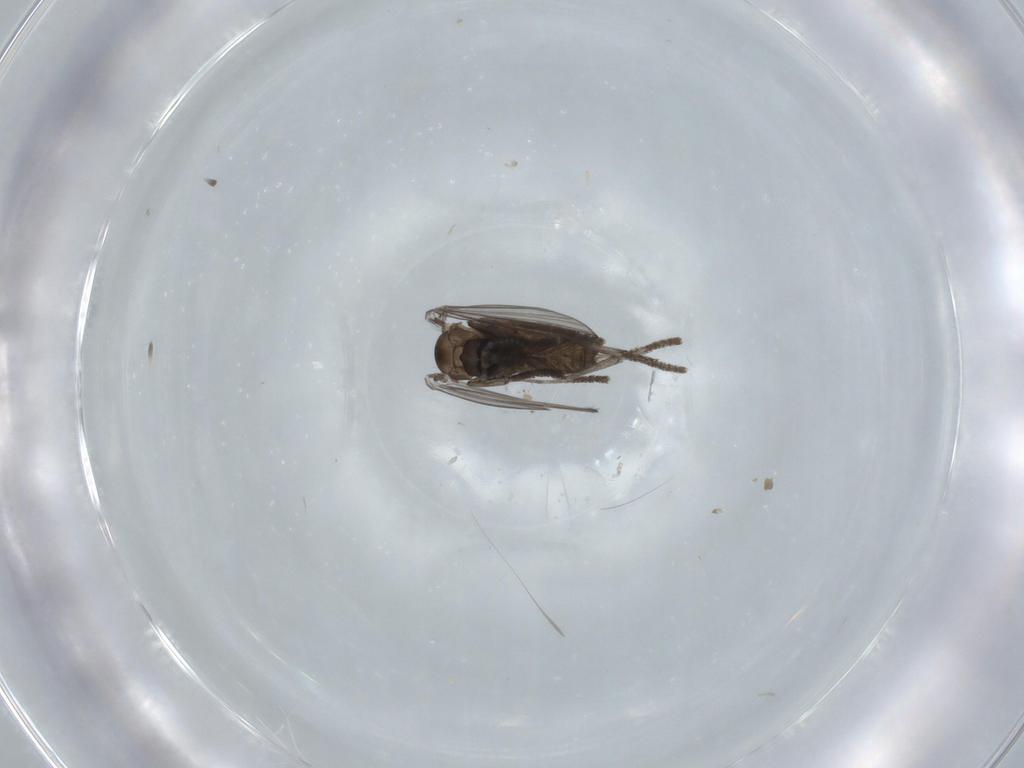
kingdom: Animalia
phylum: Arthropoda
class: Insecta
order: Diptera
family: Psychodidae
